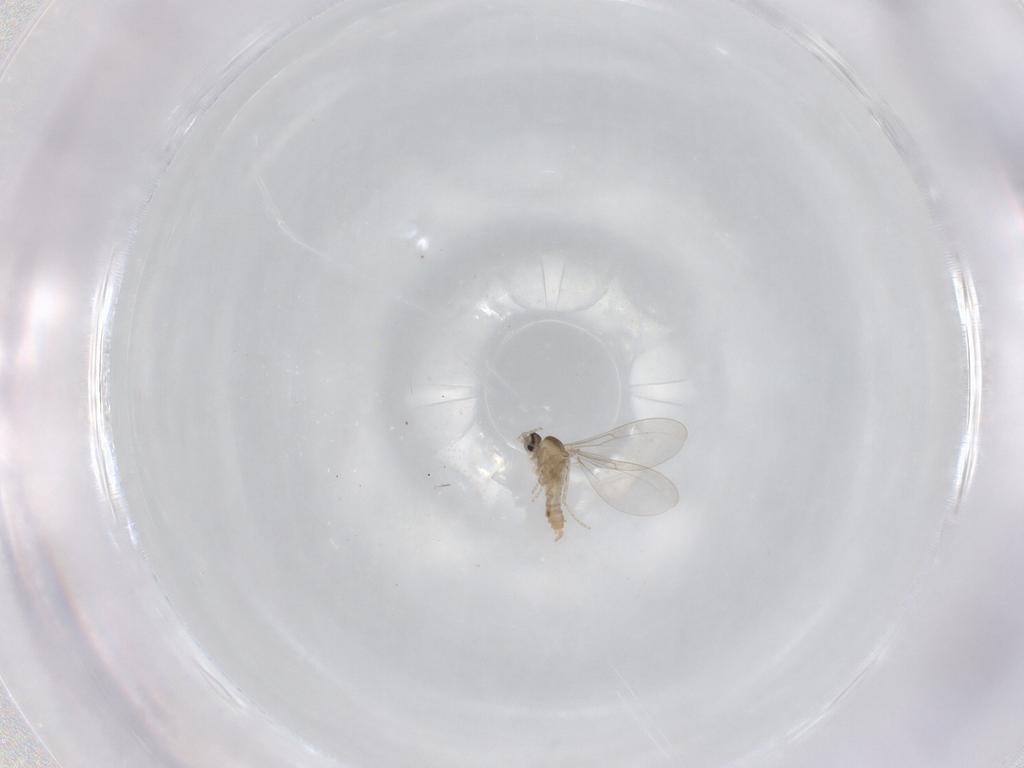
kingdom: Animalia
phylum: Arthropoda
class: Insecta
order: Diptera
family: Cecidomyiidae
